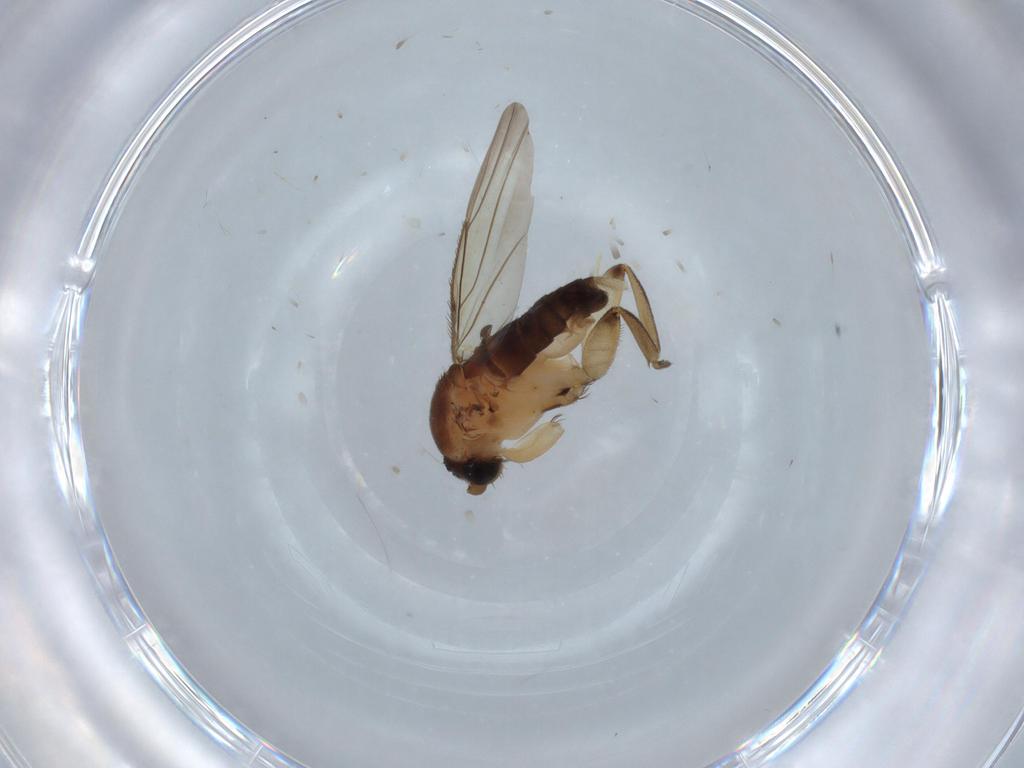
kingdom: Animalia
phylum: Arthropoda
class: Insecta
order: Diptera
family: Phoridae
